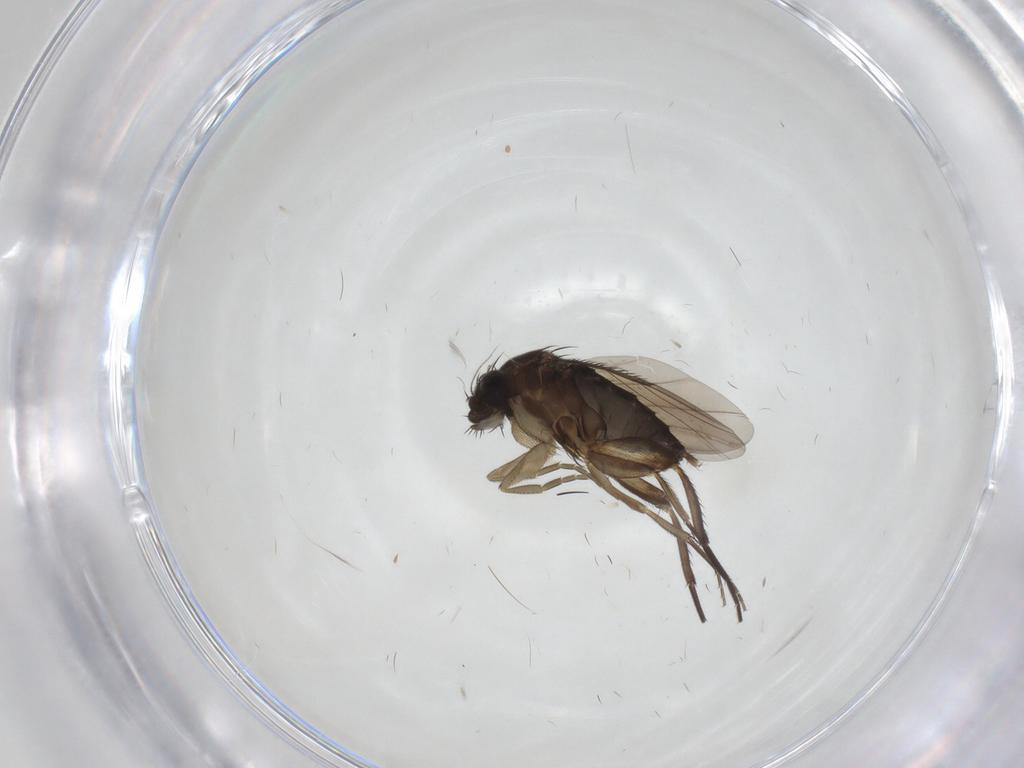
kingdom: Animalia
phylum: Arthropoda
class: Insecta
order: Diptera
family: Phoridae
